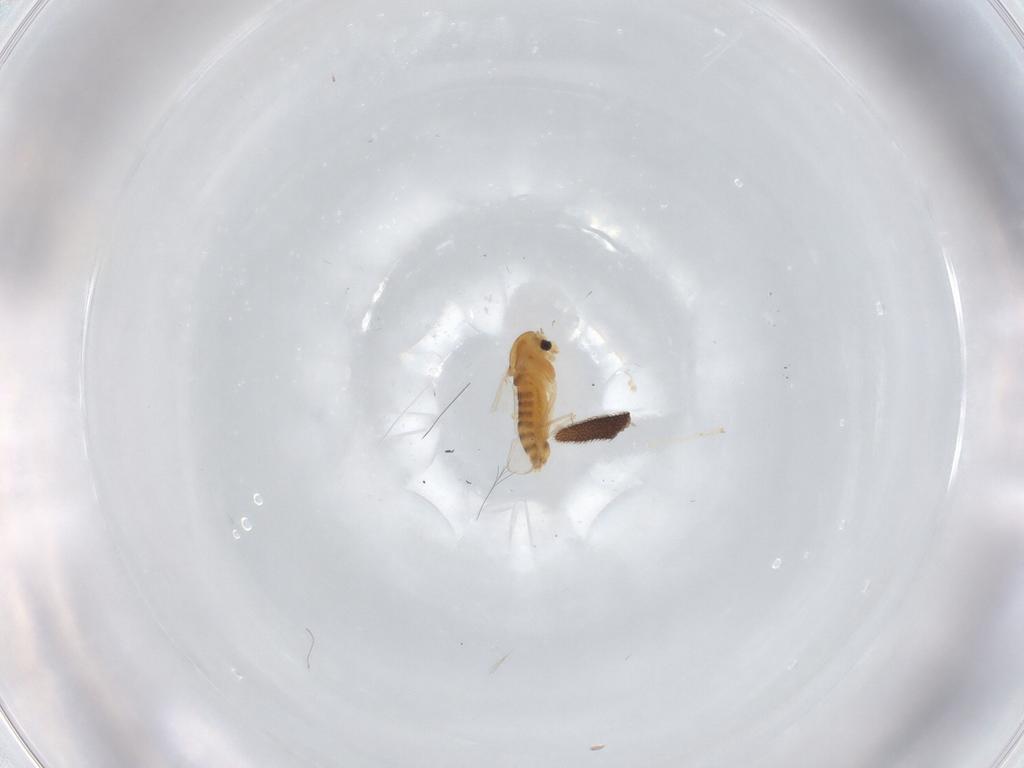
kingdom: Animalia
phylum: Arthropoda
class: Insecta
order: Diptera
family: Chironomidae
